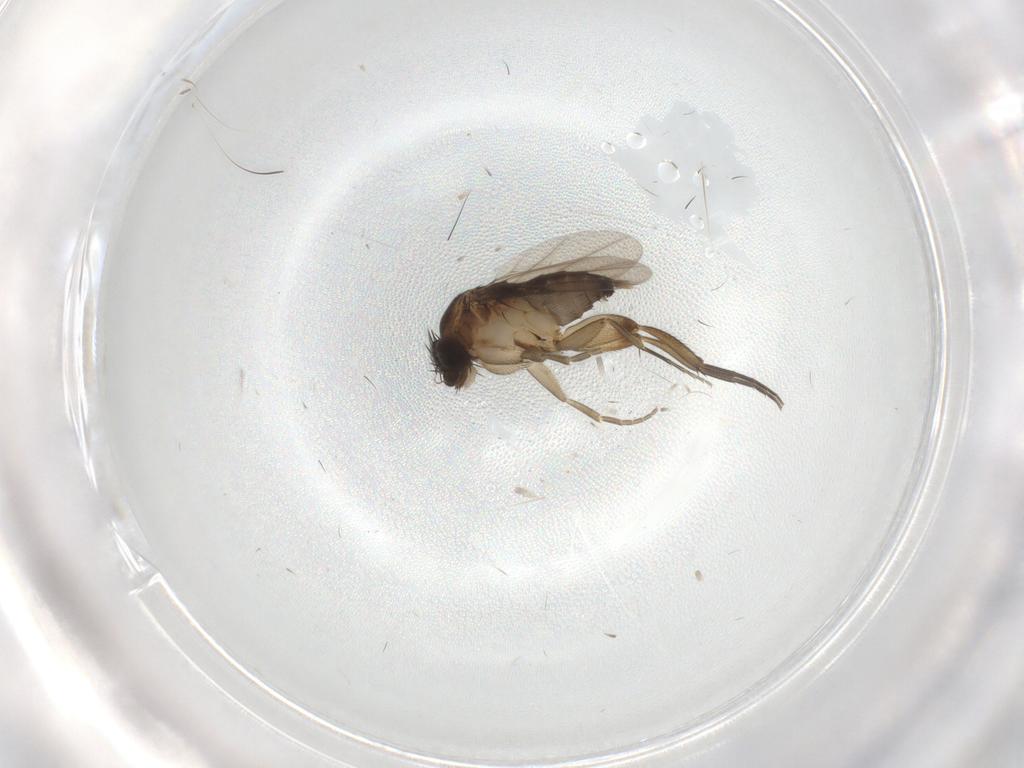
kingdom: Animalia
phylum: Arthropoda
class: Insecta
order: Diptera
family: Phoridae
